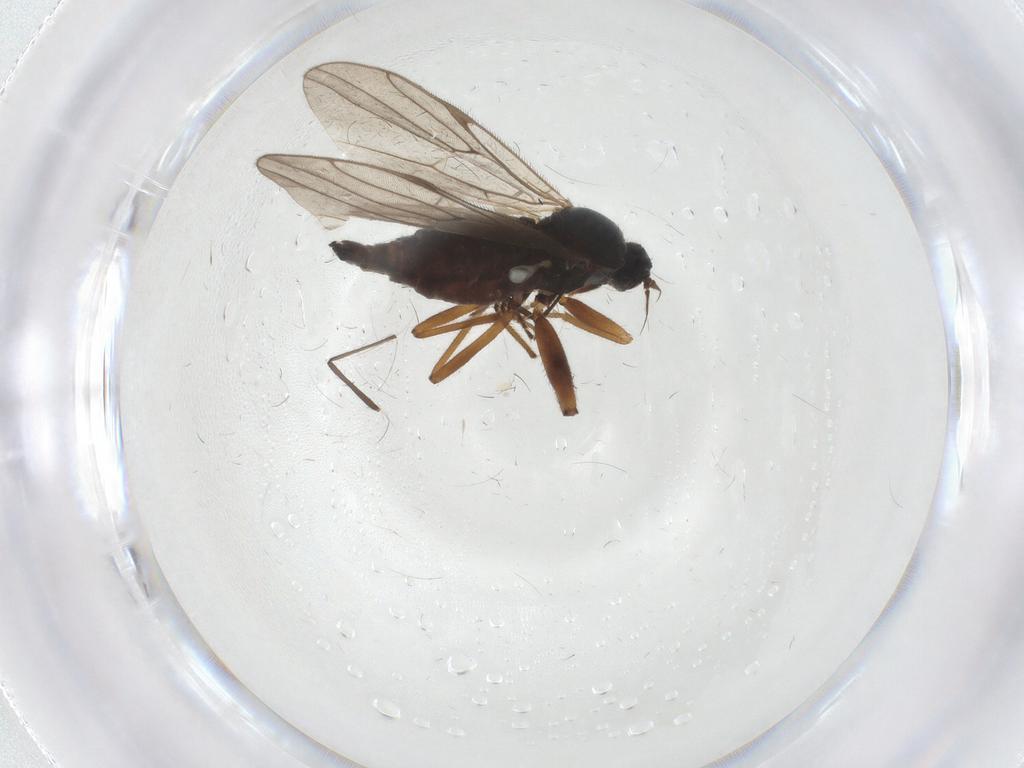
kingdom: Animalia
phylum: Arthropoda
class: Insecta
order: Diptera
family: Hybotidae
